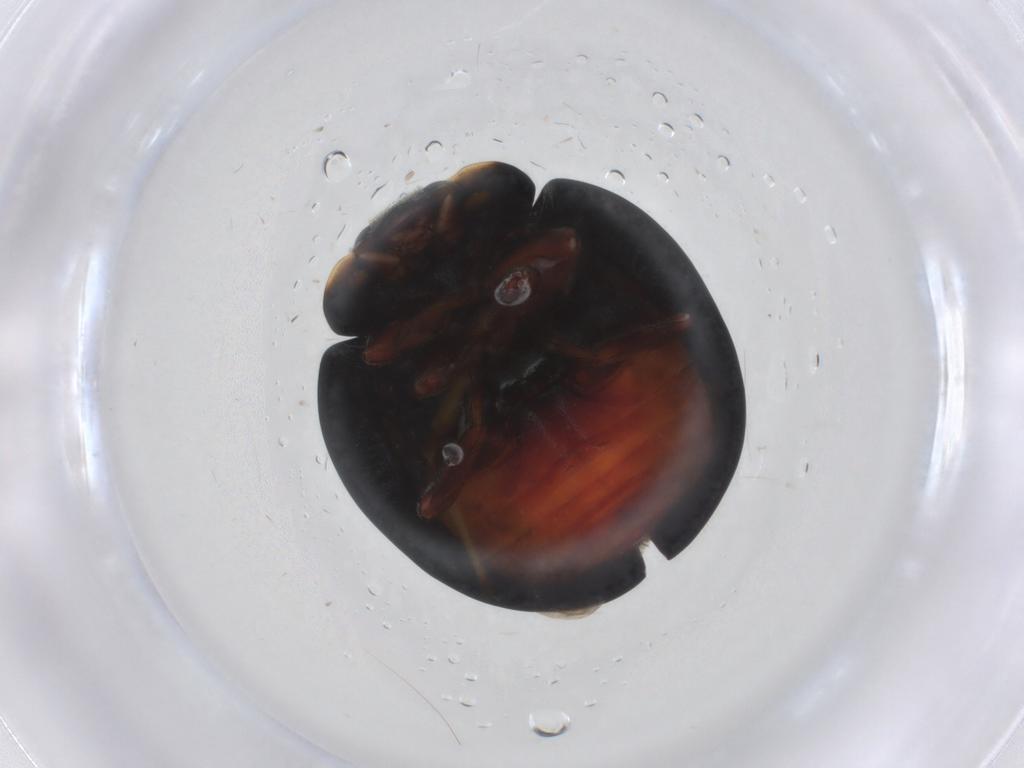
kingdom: Animalia
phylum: Arthropoda
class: Insecta
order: Coleoptera
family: Coccinellidae
